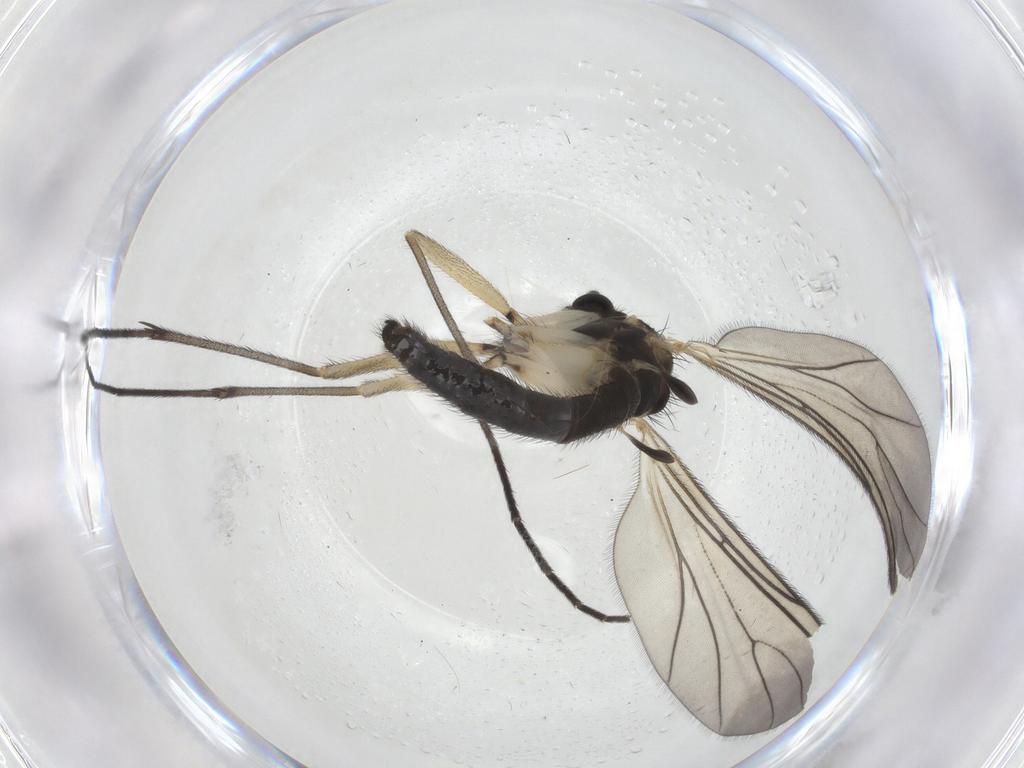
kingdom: Animalia
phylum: Arthropoda
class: Insecta
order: Diptera
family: Sciaridae
